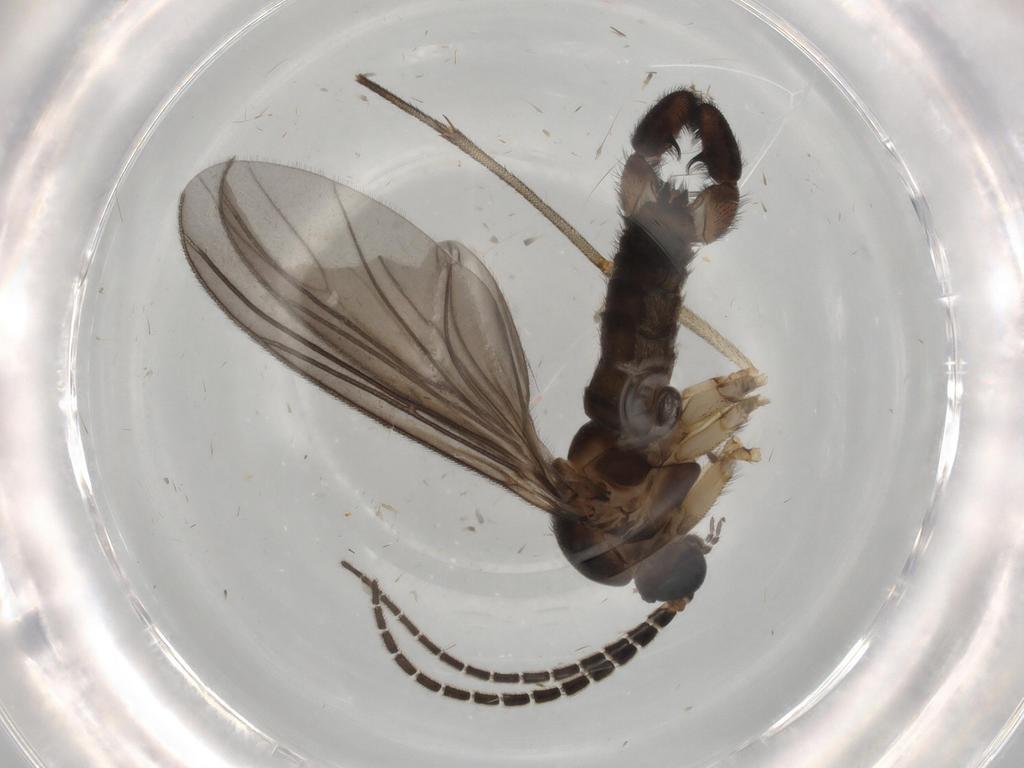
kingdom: Animalia
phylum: Arthropoda
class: Insecta
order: Diptera
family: Sciaridae
